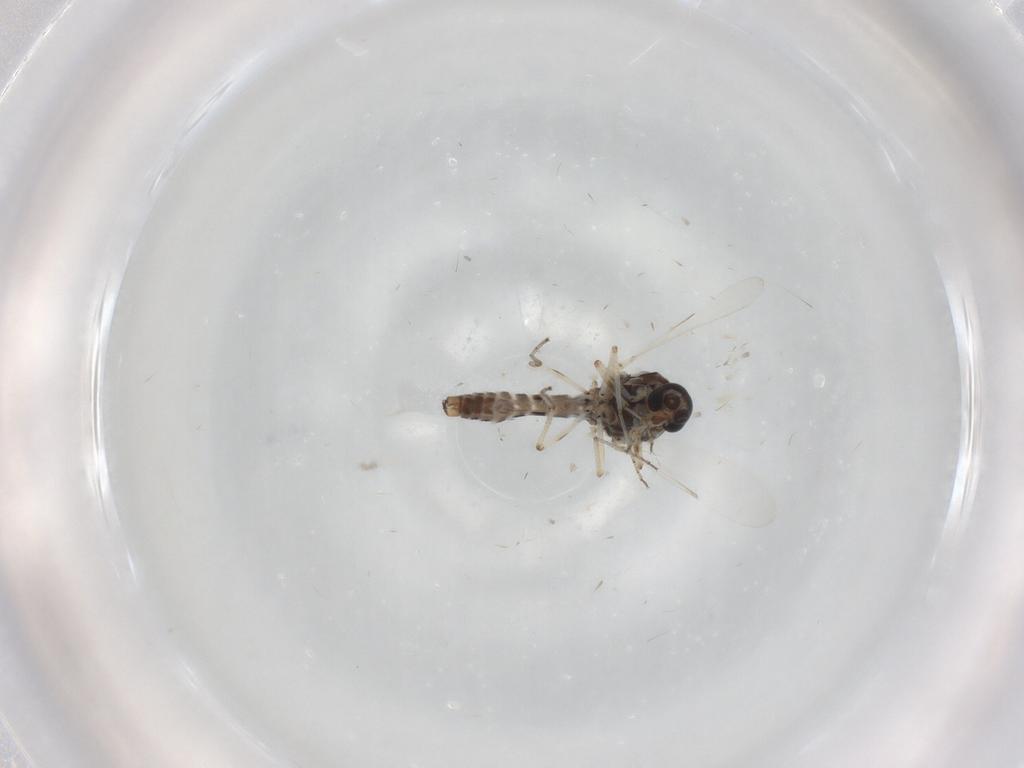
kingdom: Animalia
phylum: Arthropoda
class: Insecta
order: Diptera
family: Ceratopogonidae
